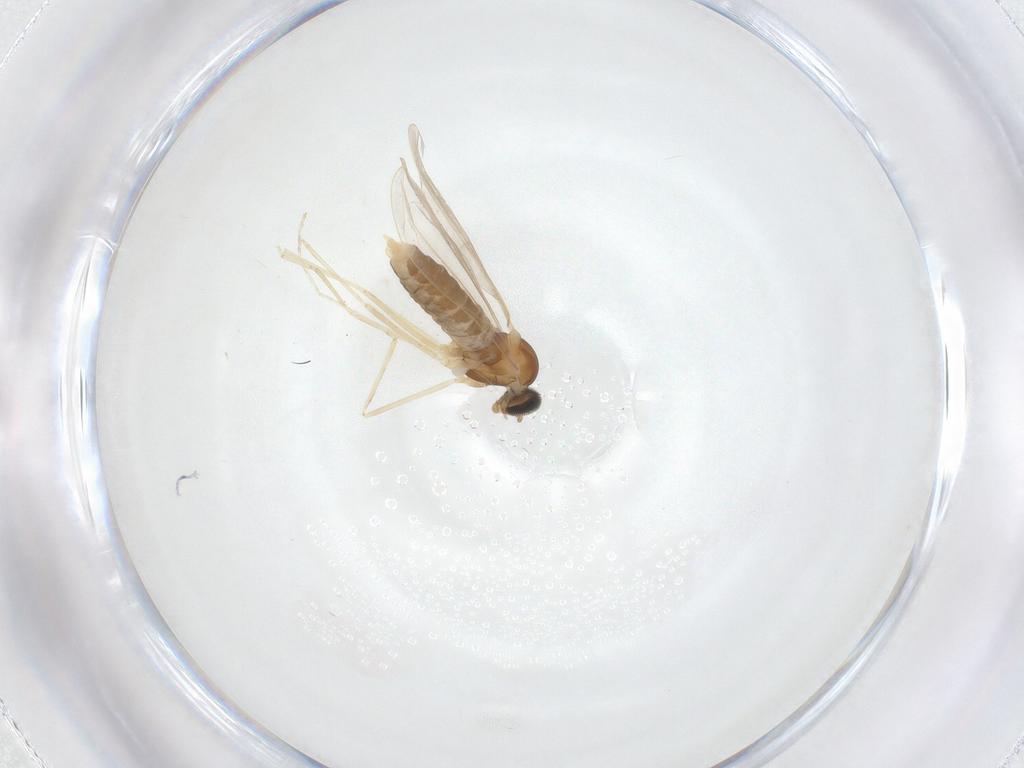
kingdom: Animalia
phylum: Arthropoda
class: Insecta
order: Diptera
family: Cecidomyiidae
